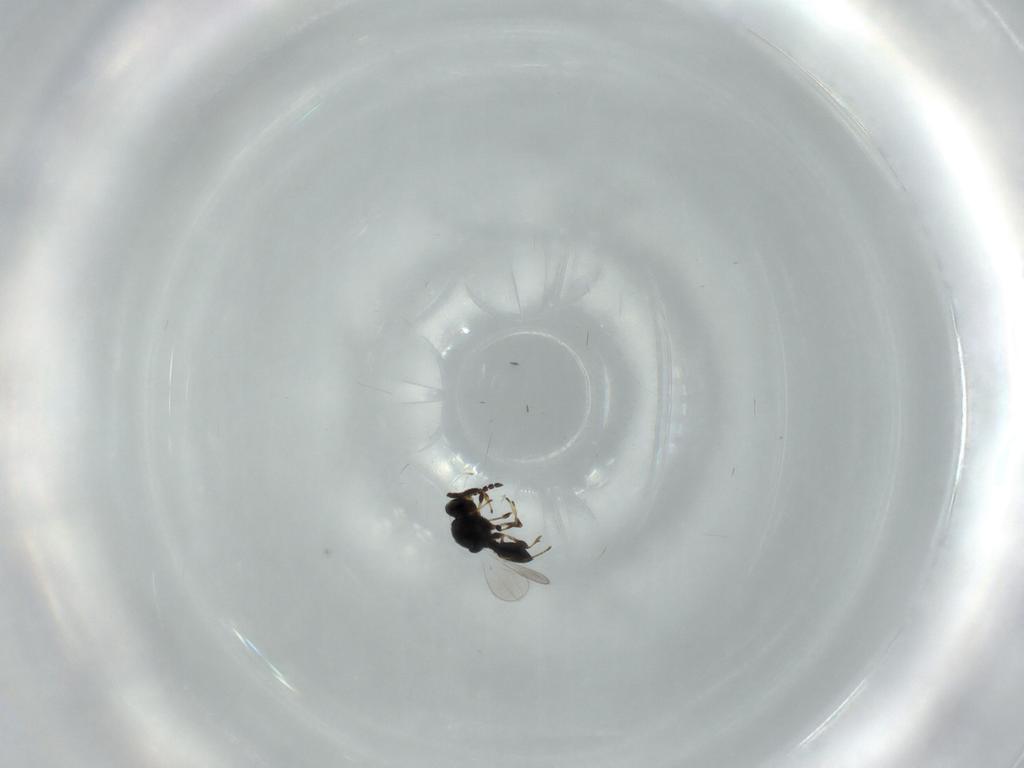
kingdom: Animalia
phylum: Arthropoda
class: Insecta
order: Hymenoptera
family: Platygastridae
